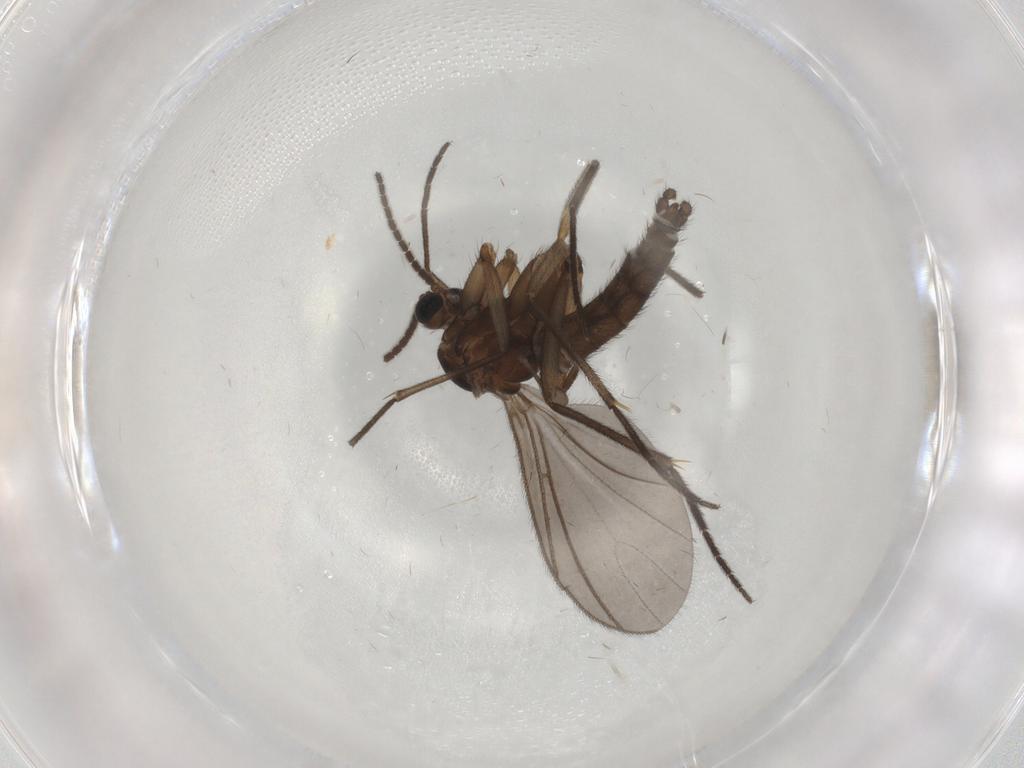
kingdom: Animalia
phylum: Arthropoda
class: Insecta
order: Diptera
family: Sciaridae
